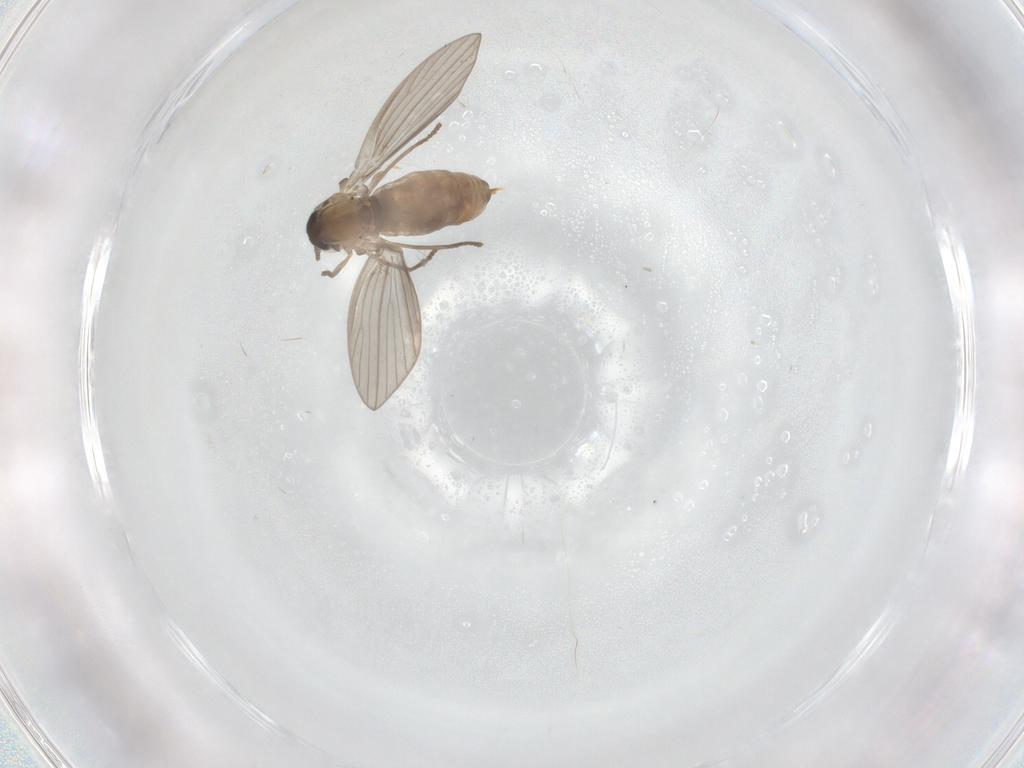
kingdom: Animalia
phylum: Arthropoda
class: Insecta
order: Diptera
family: Psychodidae
